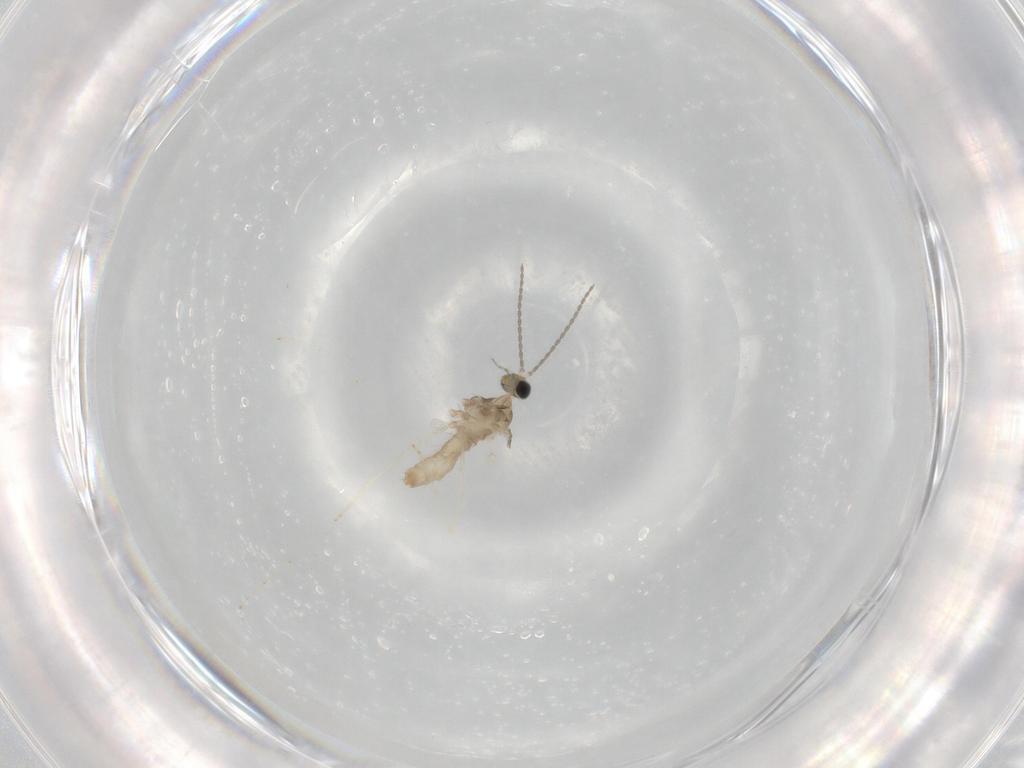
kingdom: Animalia
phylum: Arthropoda
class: Insecta
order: Diptera
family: Cecidomyiidae
